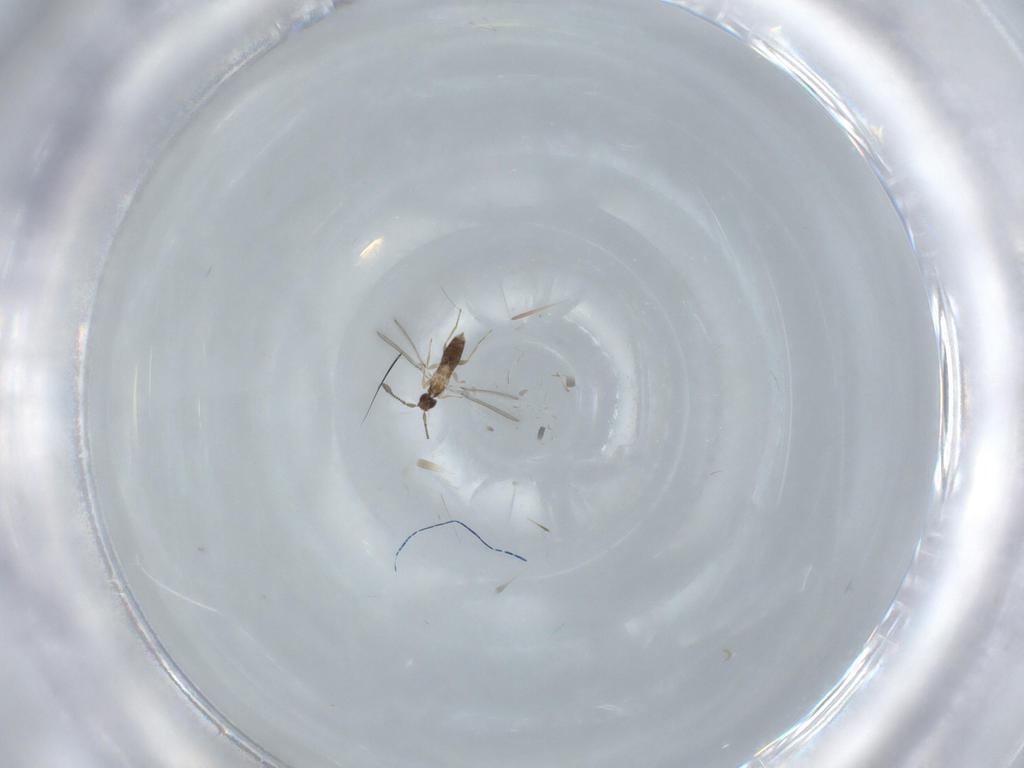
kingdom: Animalia
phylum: Arthropoda
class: Insecta
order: Hymenoptera
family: Mymaridae
